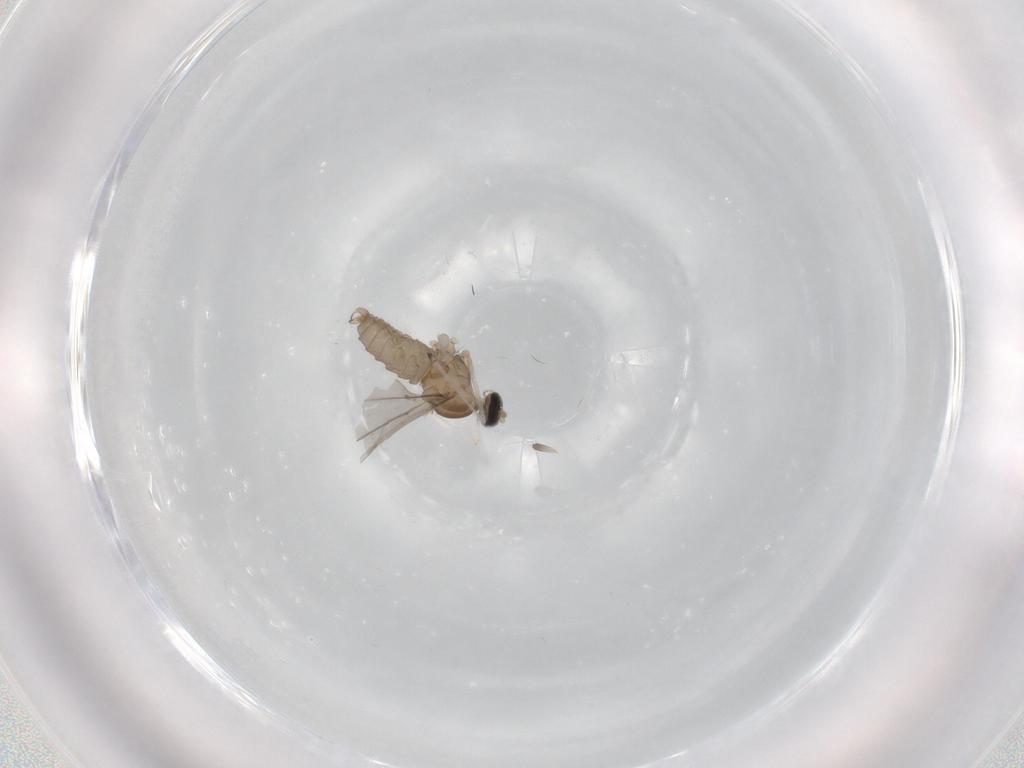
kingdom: Animalia
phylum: Arthropoda
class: Insecta
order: Diptera
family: Cecidomyiidae
